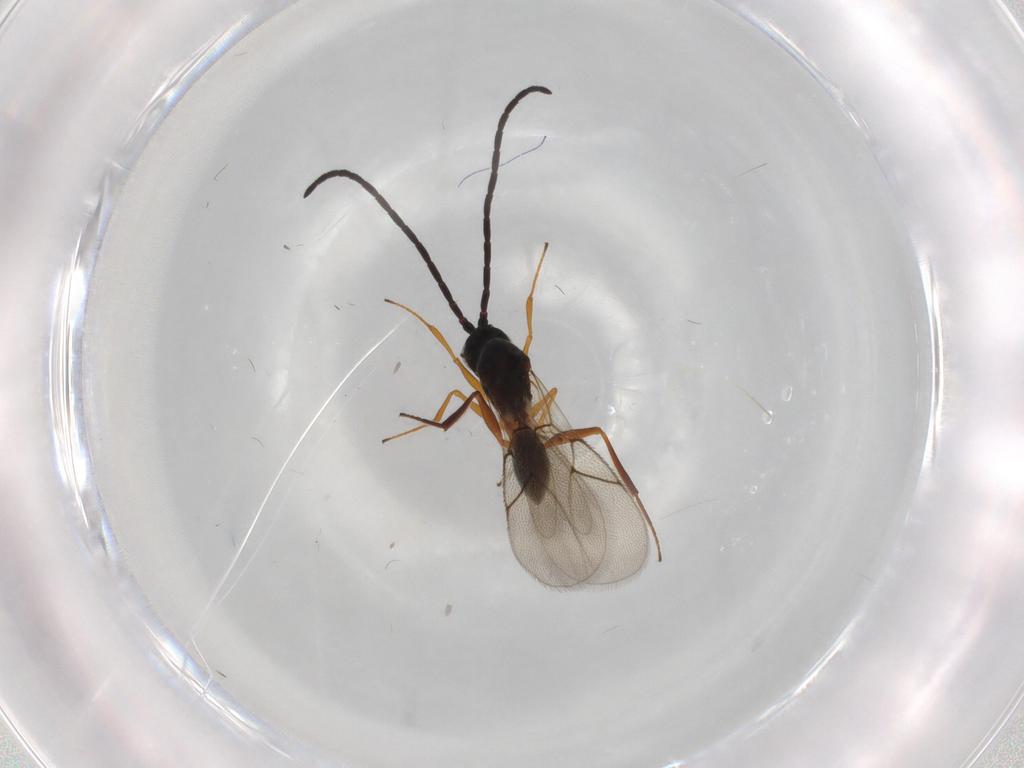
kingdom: Animalia
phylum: Arthropoda
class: Insecta
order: Hymenoptera
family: Figitidae
